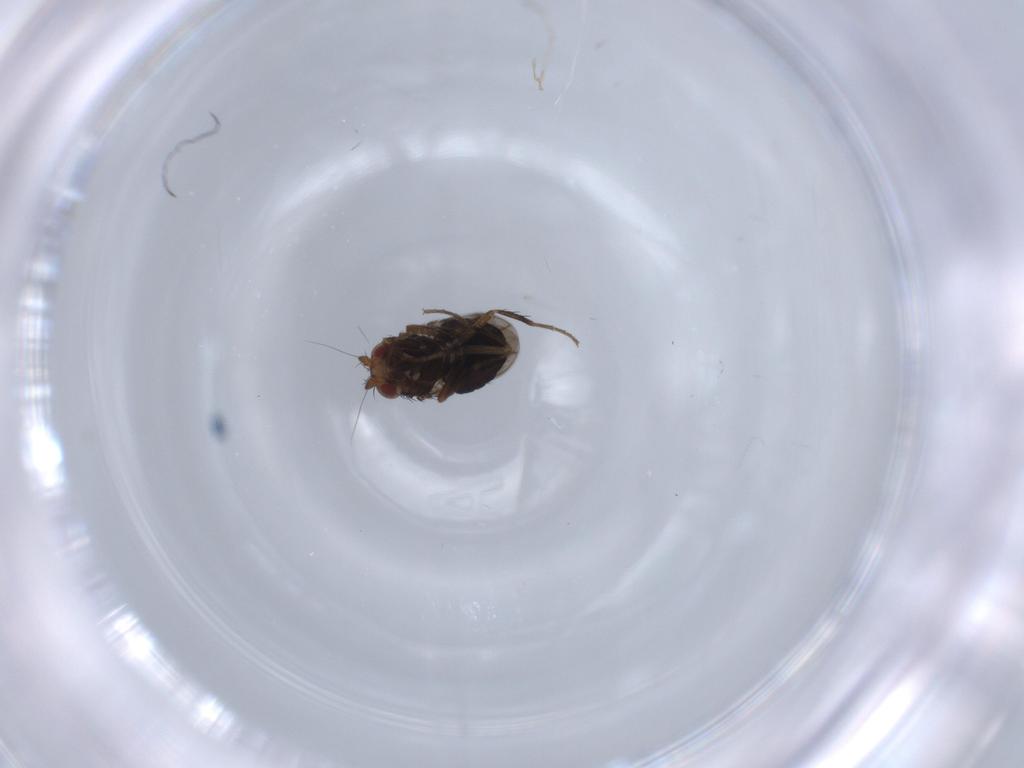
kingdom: Animalia
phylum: Arthropoda
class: Insecta
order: Diptera
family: Sphaeroceridae
